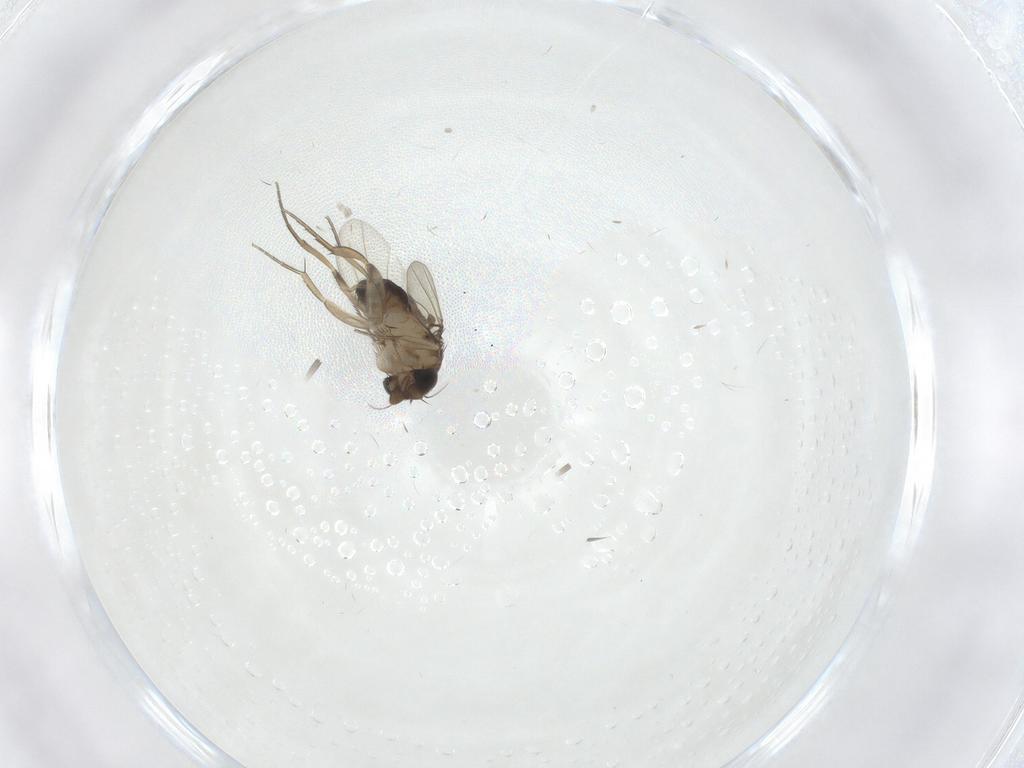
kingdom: Animalia
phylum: Arthropoda
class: Insecta
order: Diptera
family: Phoridae
